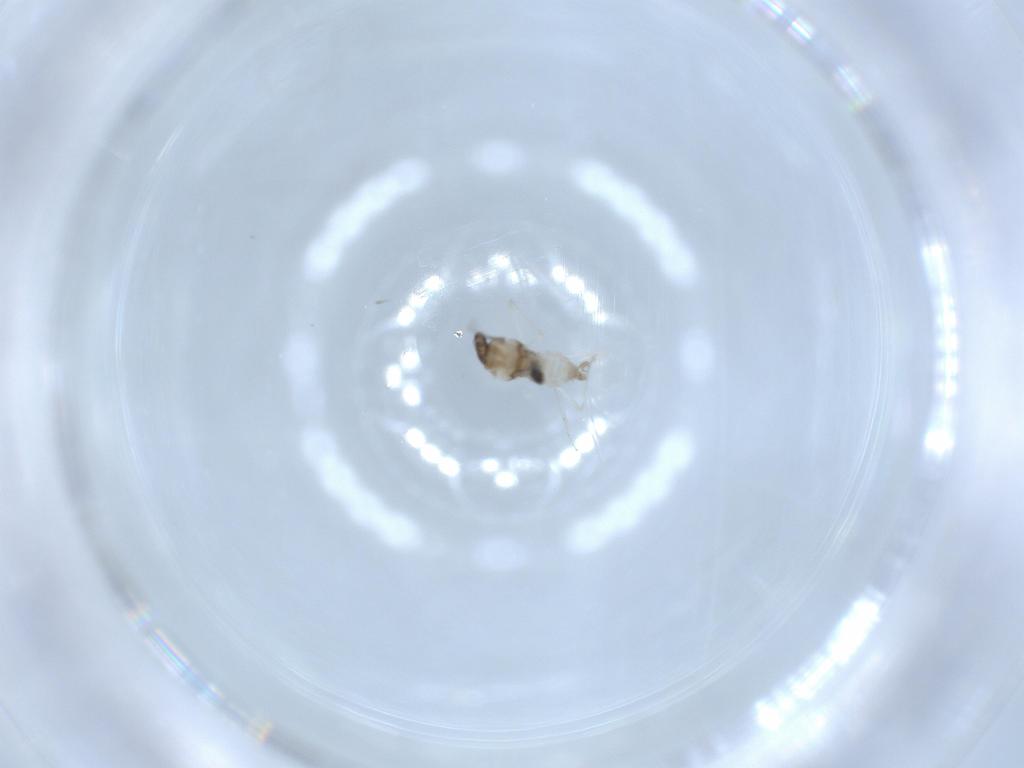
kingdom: Animalia
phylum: Arthropoda
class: Insecta
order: Diptera
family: Cecidomyiidae
